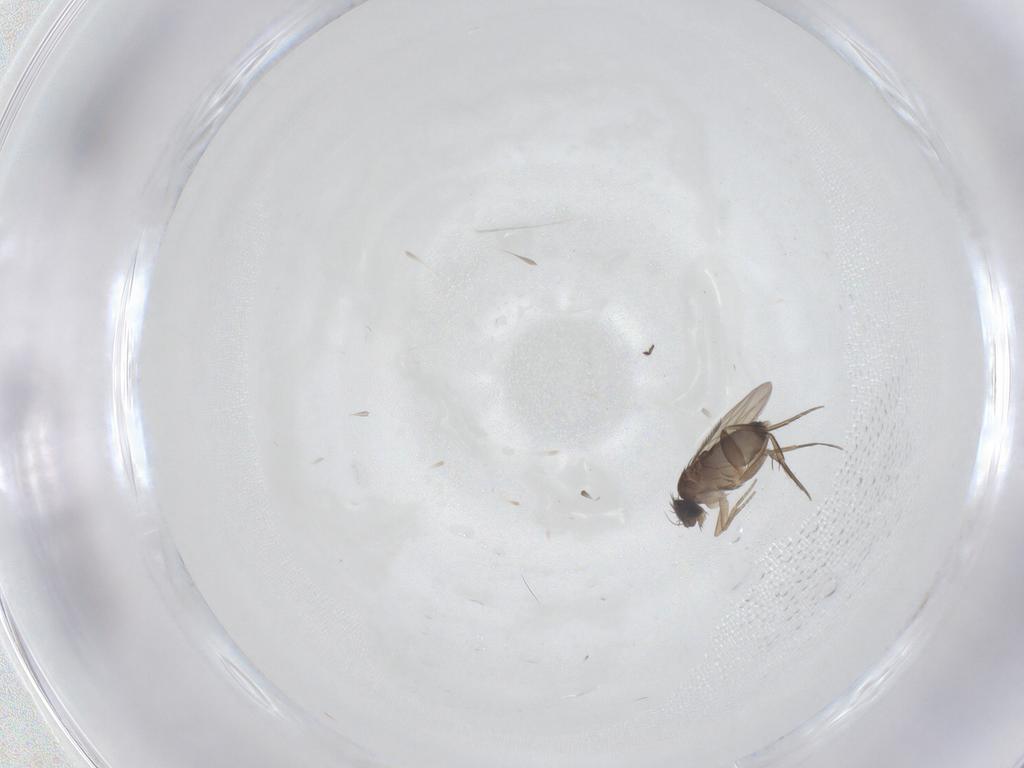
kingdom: Animalia
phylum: Arthropoda
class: Insecta
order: Diptera
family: Phoridae
